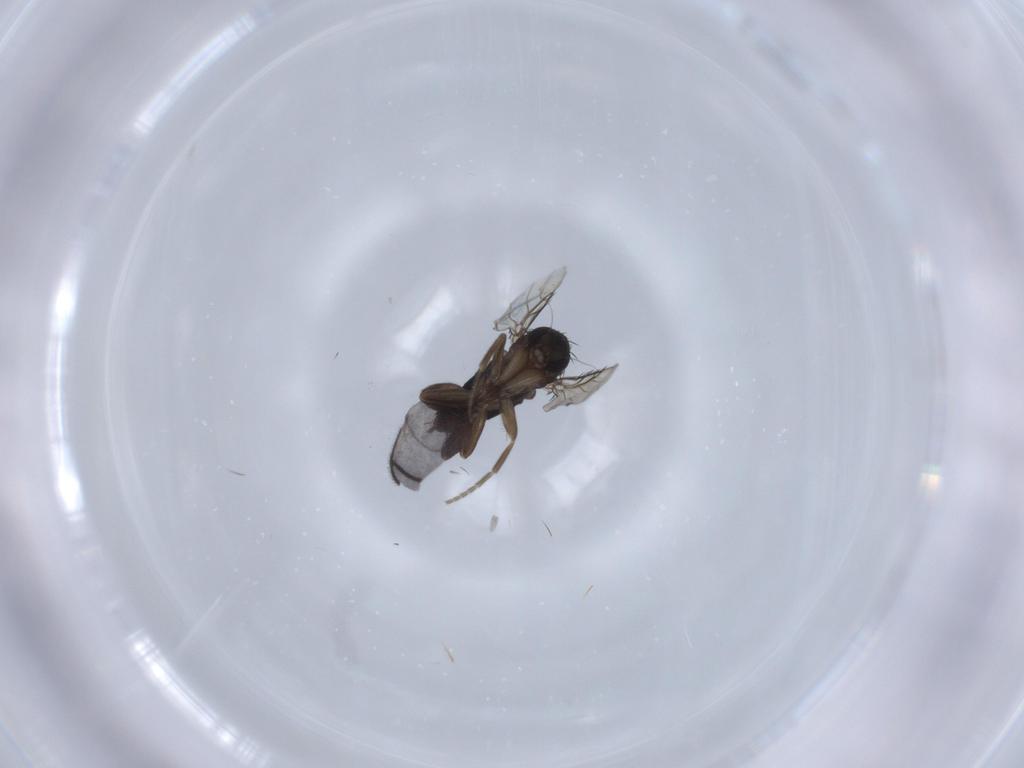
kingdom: Animalia
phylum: Arthropoda
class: Insecta
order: Diptera
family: Phoridae
